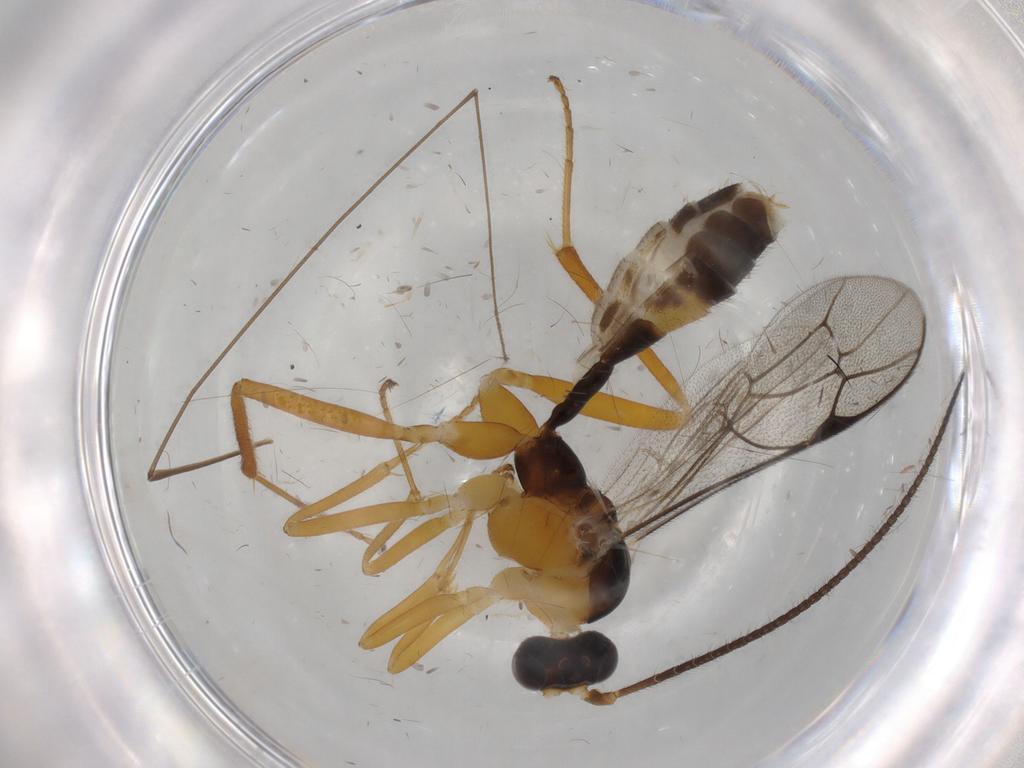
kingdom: Animalia
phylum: Arthropoda
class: Insecta
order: Hymenoptera
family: Ichneumonidae
